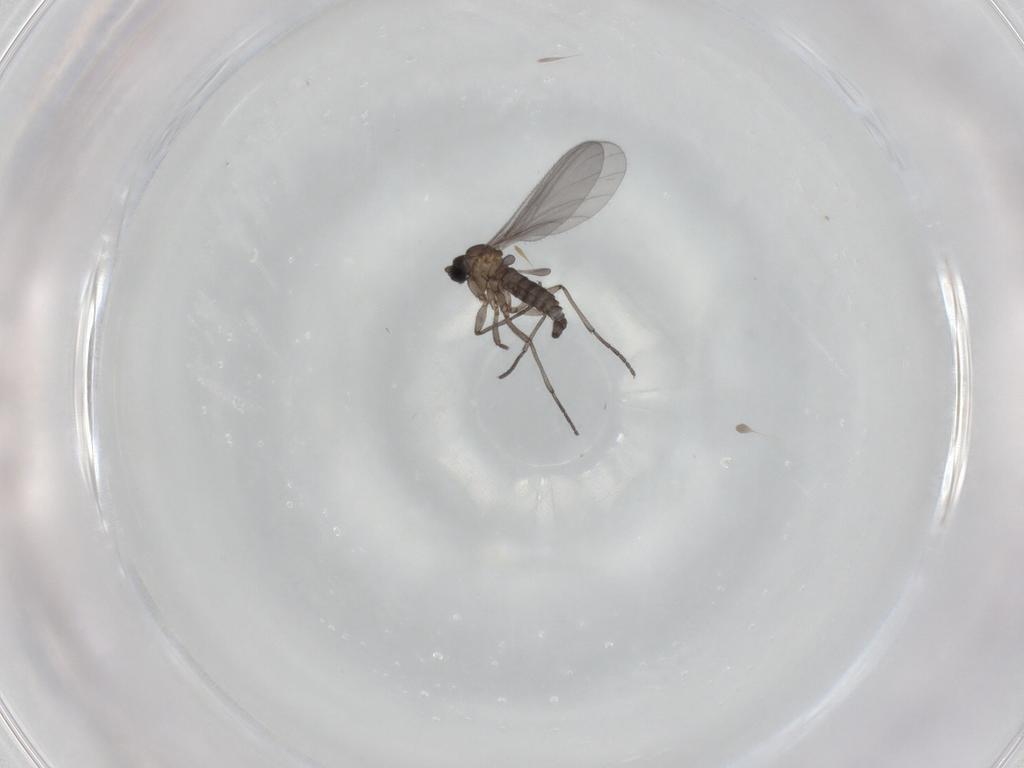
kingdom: Animalia
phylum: Arthropoda
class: Insecta
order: Diptera
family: Sciaridae
